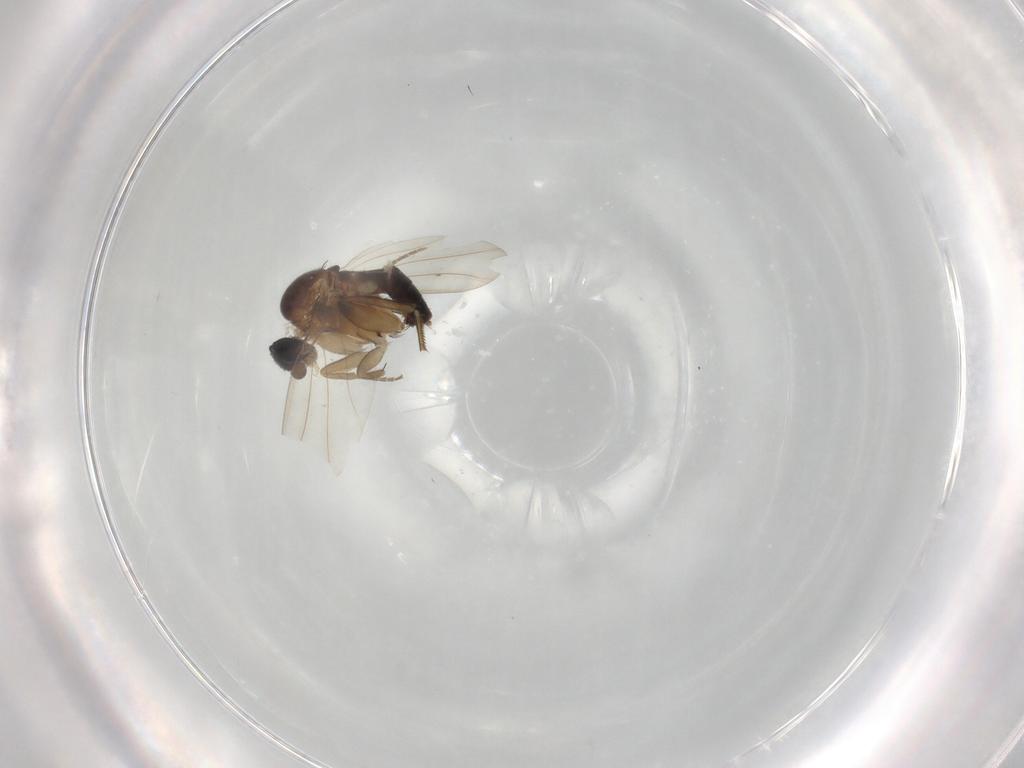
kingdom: Animalia
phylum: Arthropoda
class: Insecta
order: Diptera
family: Phoridae
